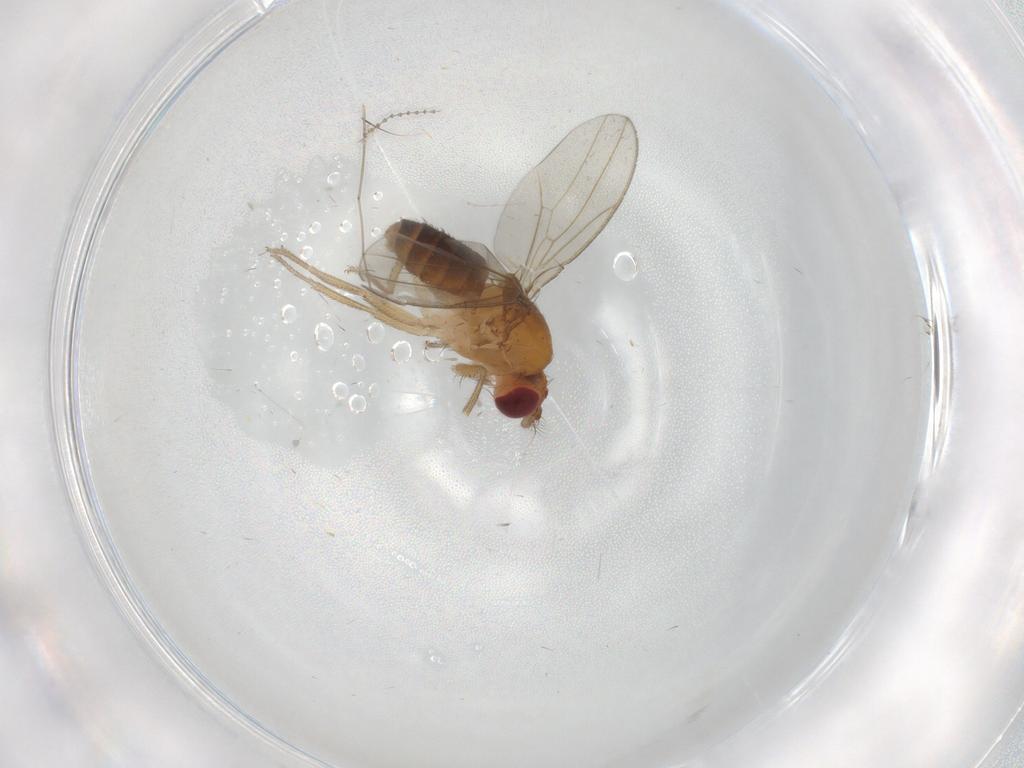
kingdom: Animalia
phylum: Arthropoda
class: Insecta
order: Diptera
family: Drosophilidae
